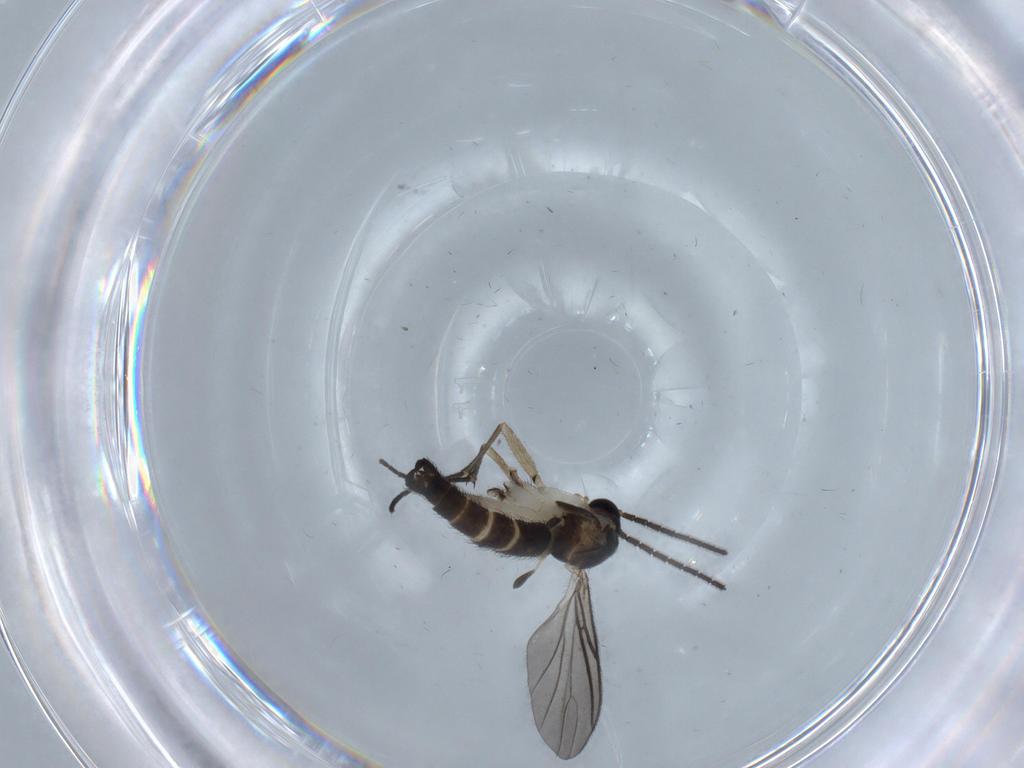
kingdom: Animalia
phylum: Arthropoda
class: Insecta
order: Diptera
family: Sciaridae
